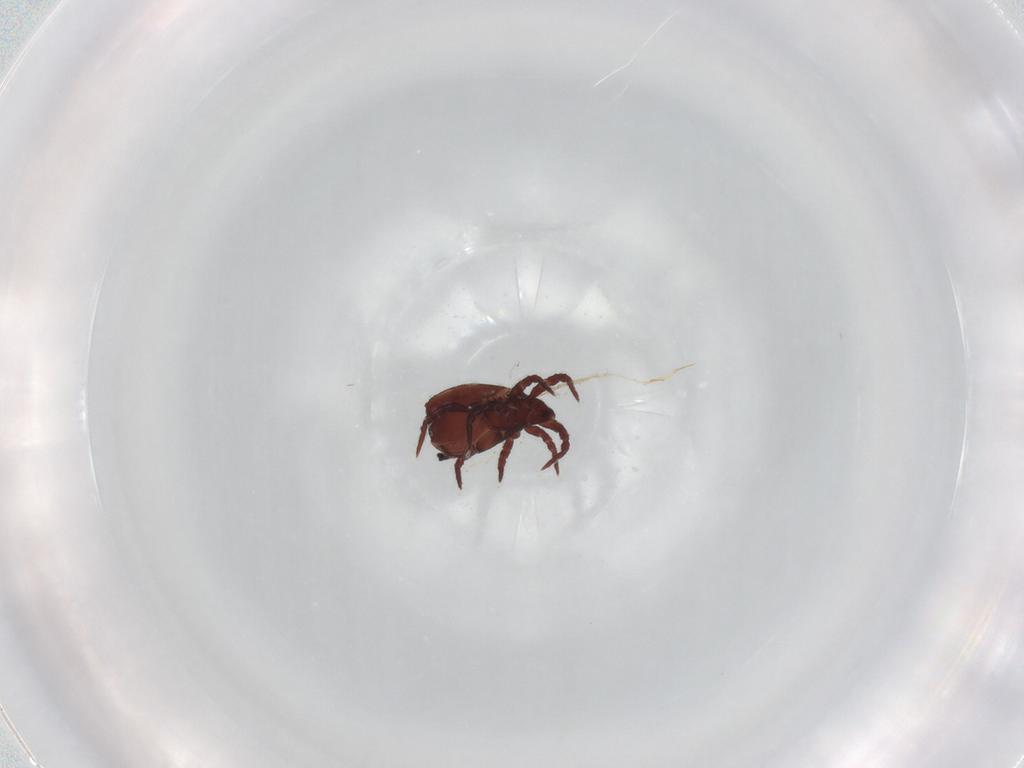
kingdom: Animalia
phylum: Arthropoda
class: Arachnida
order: Sarcoptiformes
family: Nothridae
